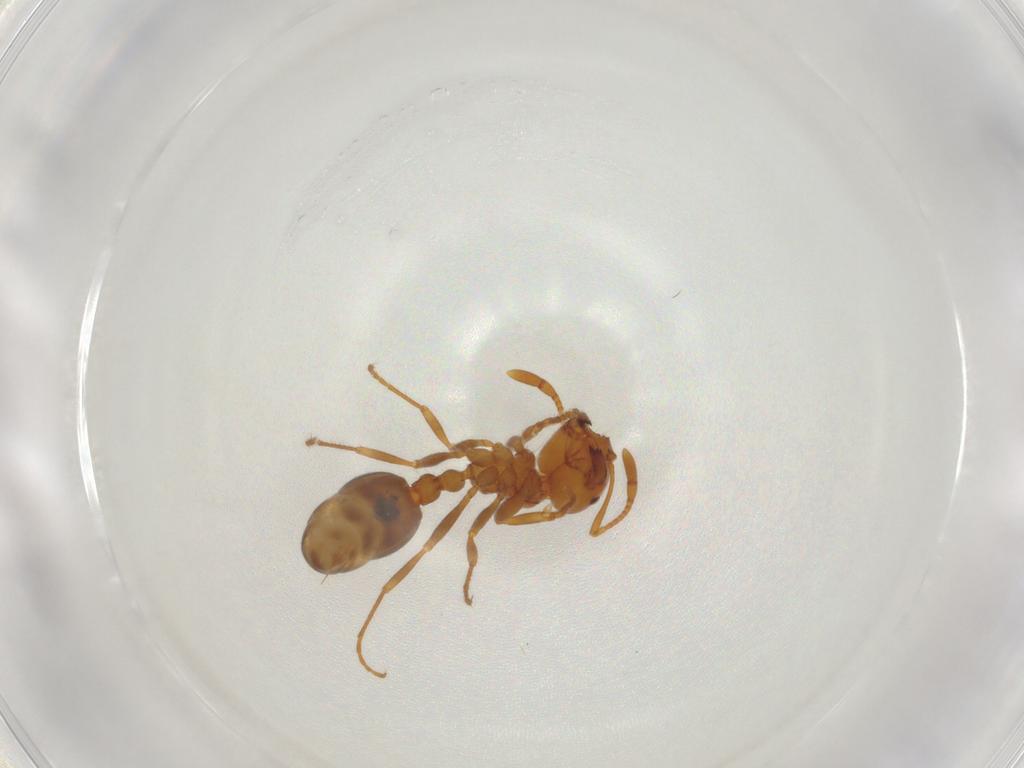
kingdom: Animalia
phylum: Arthropoda
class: Insecta
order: Hymenoptera
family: Formicidae
